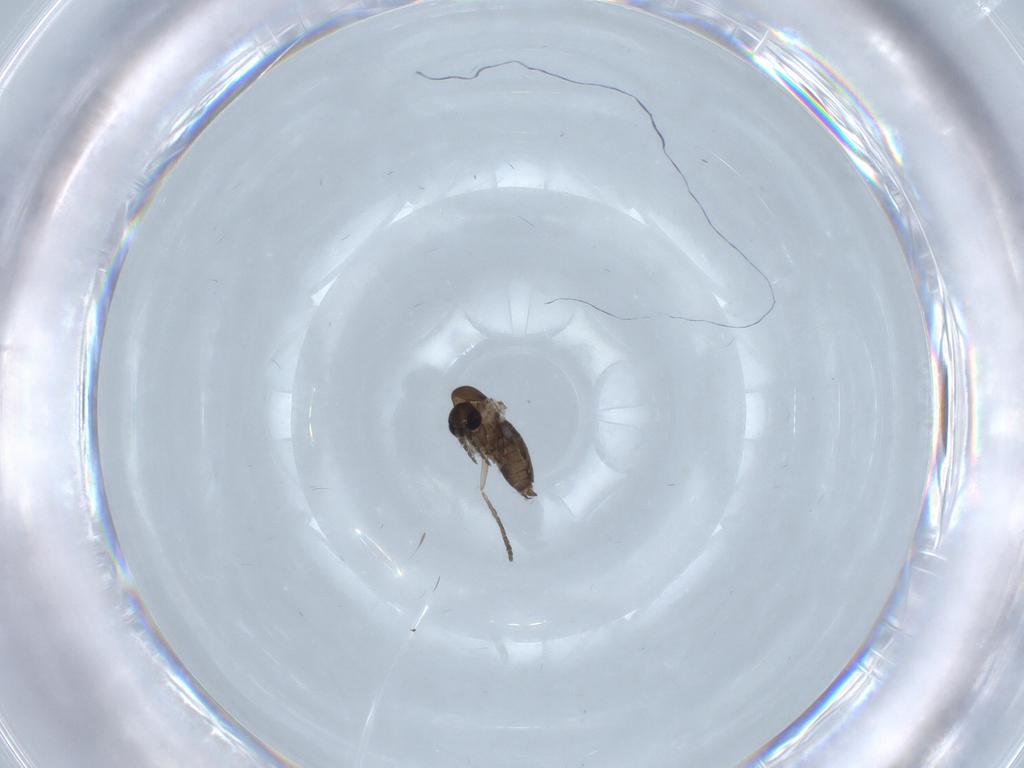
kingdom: Animalia
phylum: Arthropoda
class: Insecta
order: Diptera
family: Psychodidae
